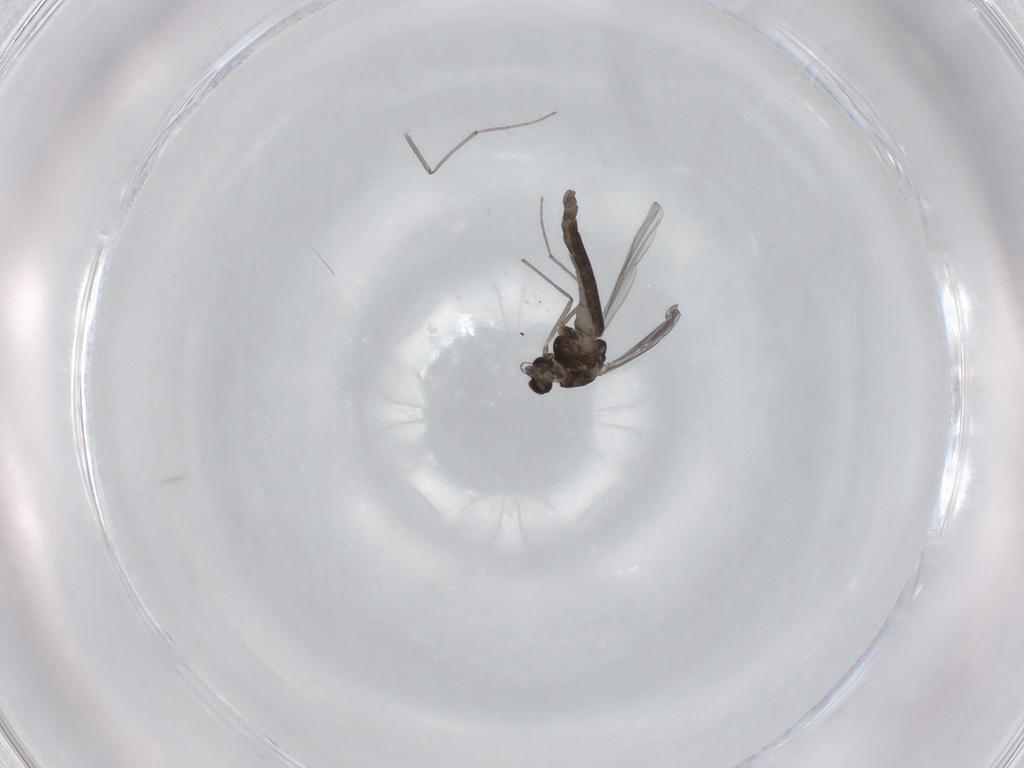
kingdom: Animalia
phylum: Arthropoda
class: Insecta
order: Diptera
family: Chironomidae
